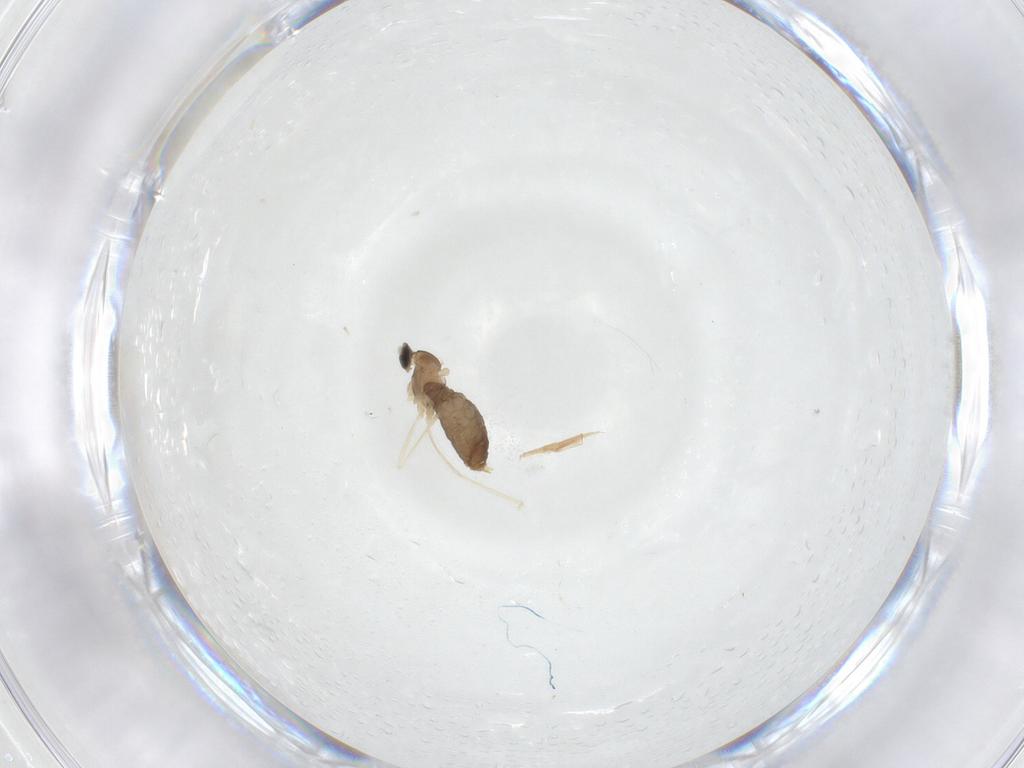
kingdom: Animalia
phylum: Arthropoda
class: Insecta
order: Diptera
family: Cecidomyiidae
